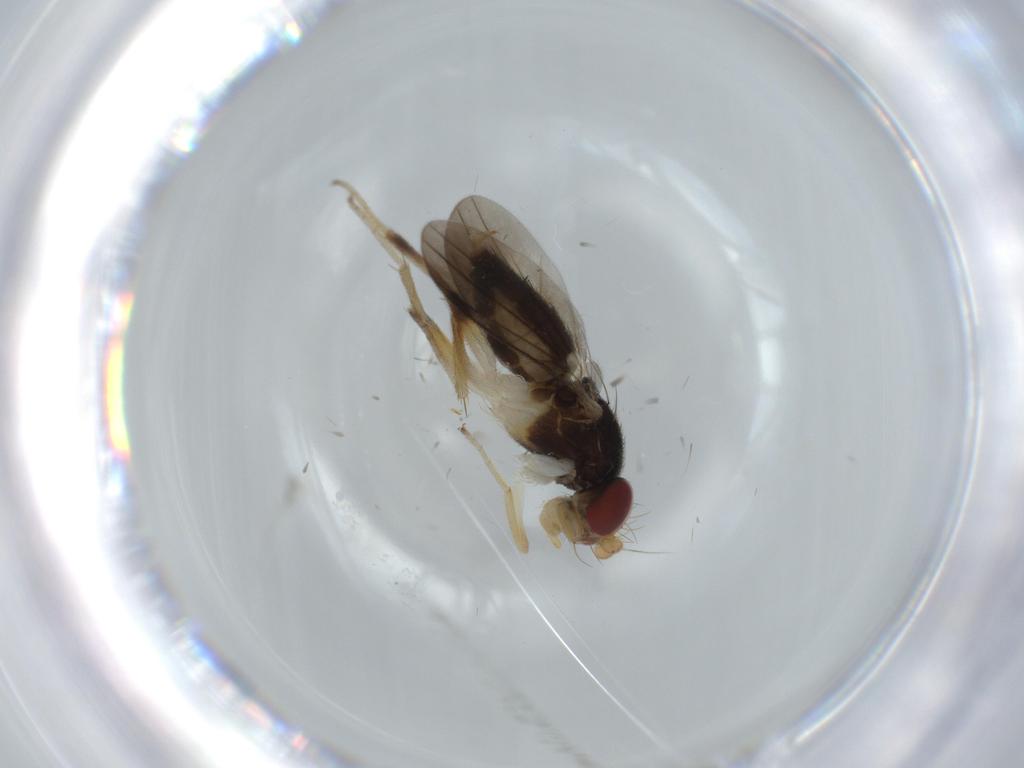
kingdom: Animalia
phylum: Arthropoda
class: Insecta
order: Diptera
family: Clusiidae
